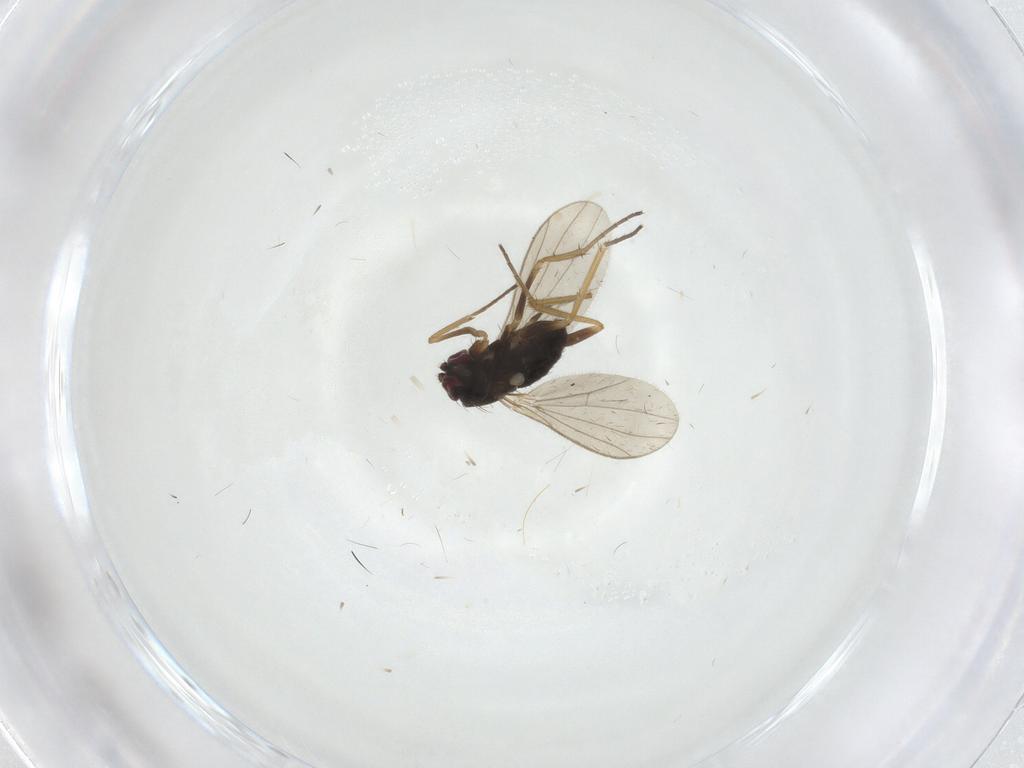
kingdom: Animalia
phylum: Arthropoda
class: Insecta
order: Diptera
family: Dolichopodidae
